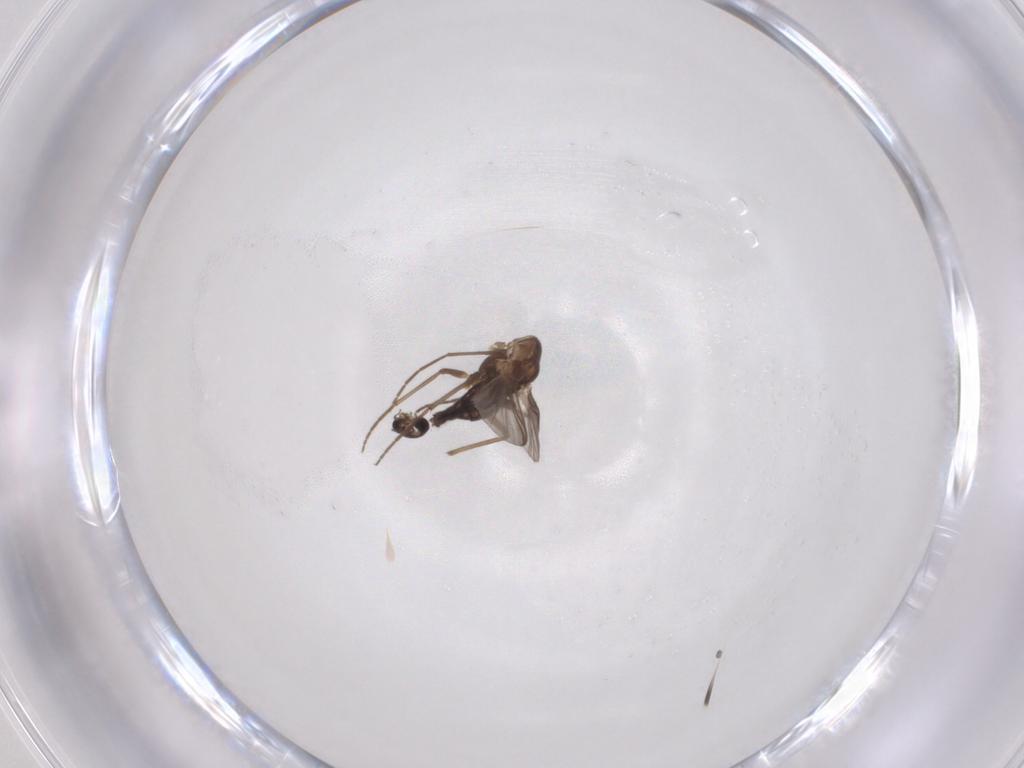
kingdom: Animalia
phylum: Arthropoda
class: Insecta
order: Diptera
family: Chironomidae
